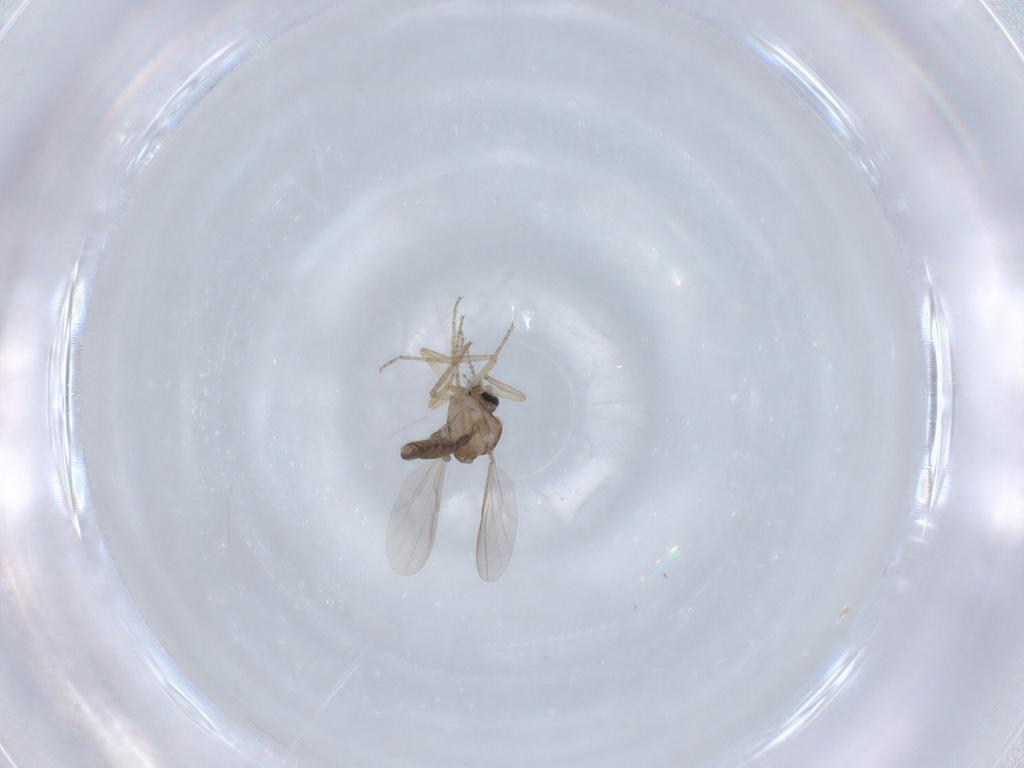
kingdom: Animalia
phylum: Arthropoda
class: Insecta
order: Diptera
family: Ceratopogonidae
